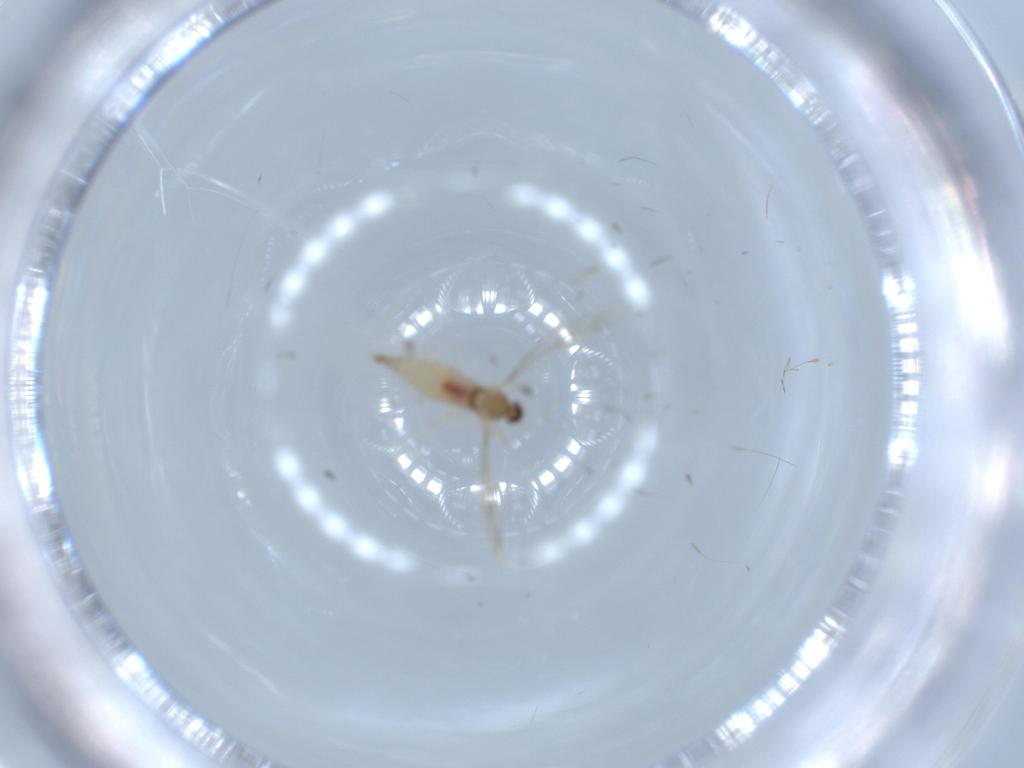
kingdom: Animalia
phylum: Arthropoda
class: Insecta
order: Diptera
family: Cecidomyiidae
